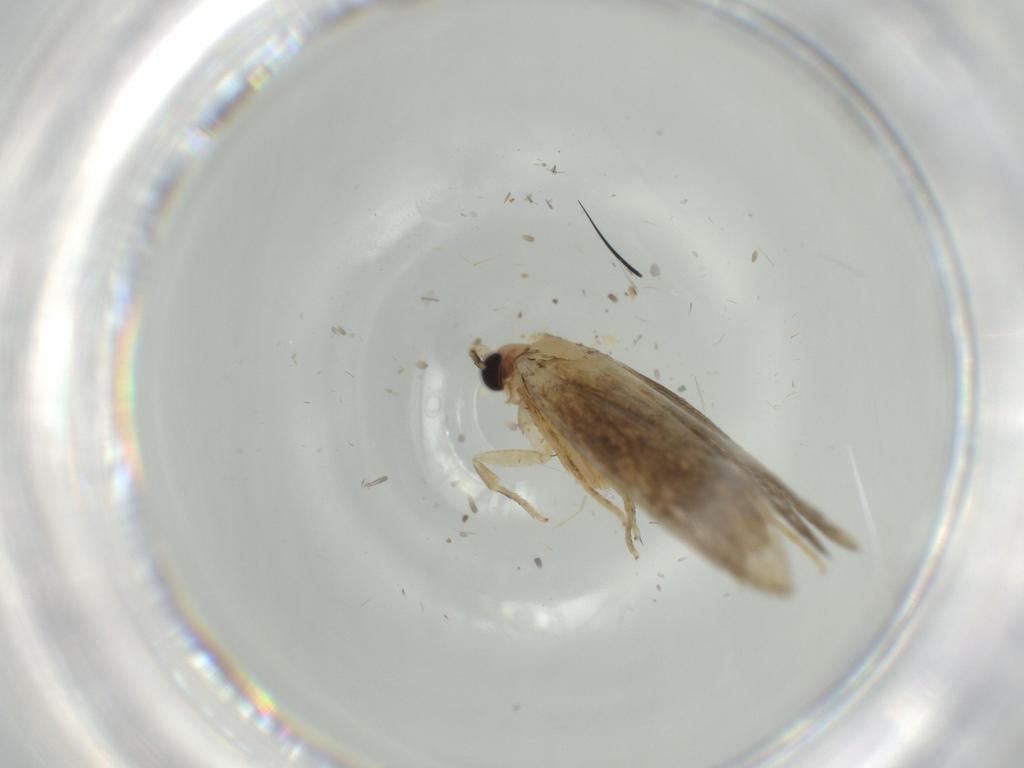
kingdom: Animalia
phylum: Arthropoda
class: Insecta
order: Lepidoptera
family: Tineidae
